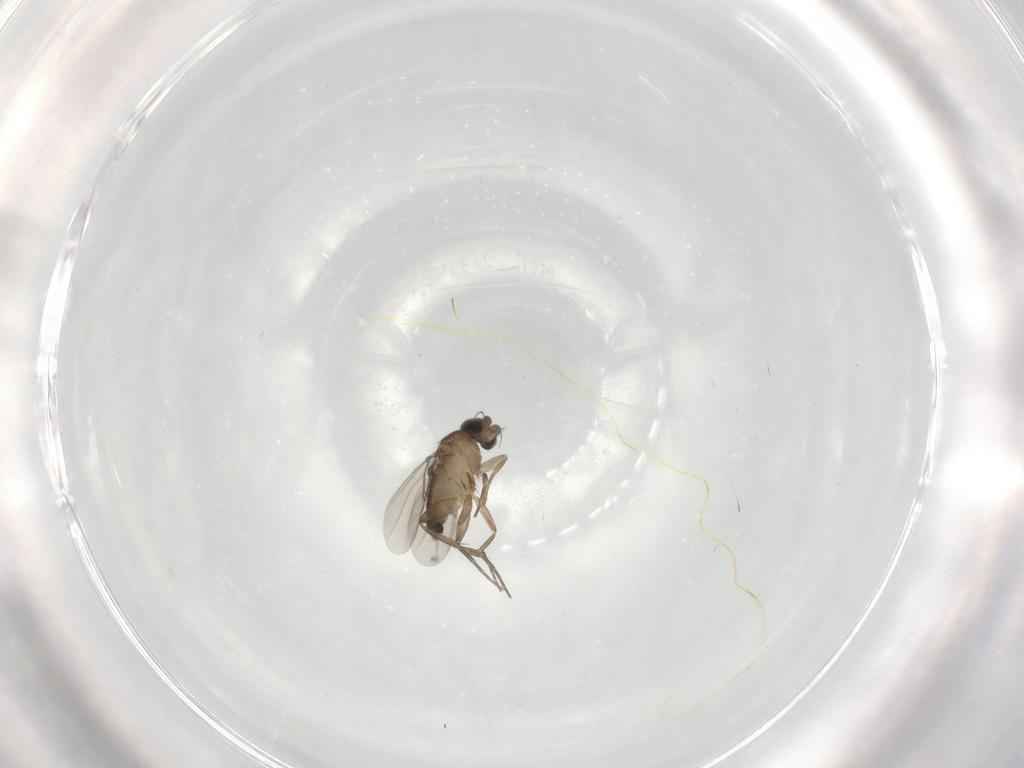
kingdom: Animalia
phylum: Arthropoda
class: Insecta
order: Diptera
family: Phoridae
